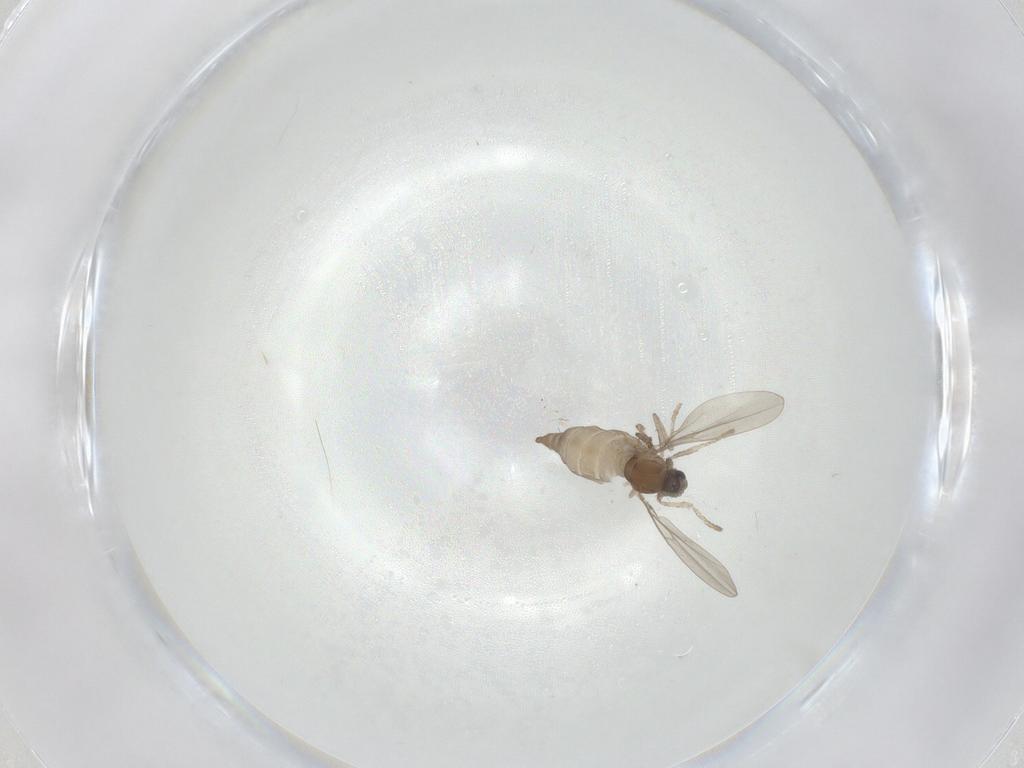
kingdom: Animalia
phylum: Arthropoda
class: Insecta
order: Diptera
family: Cecidomyiidae
